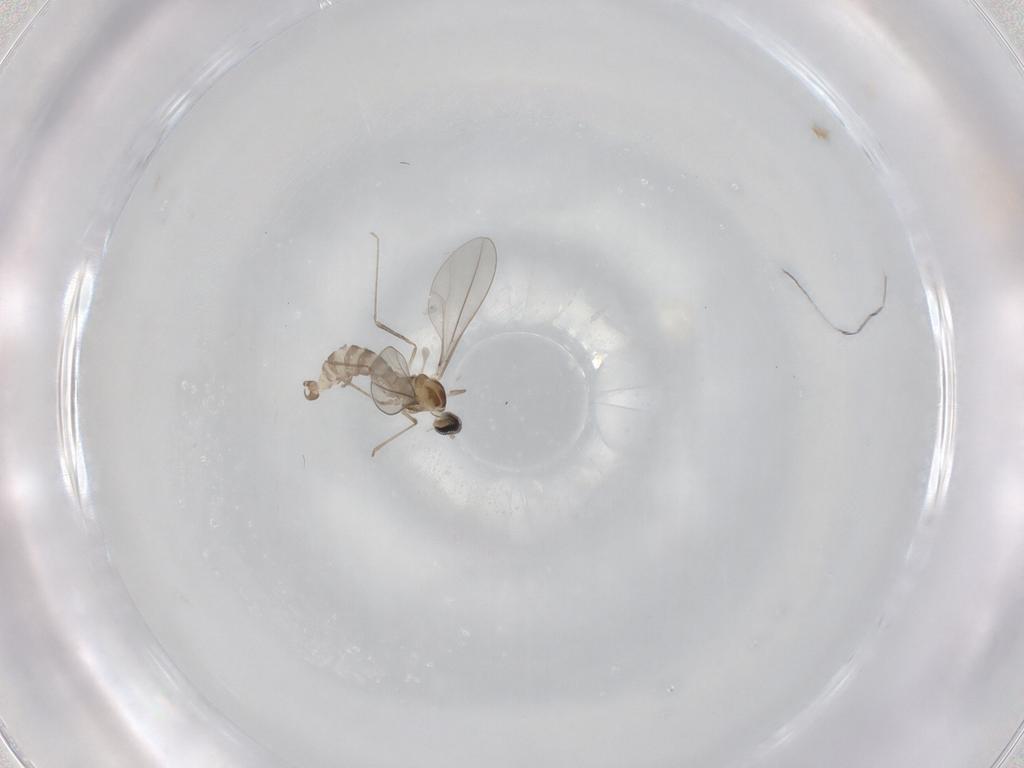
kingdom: Animalia
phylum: Arthropoda
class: Insecta
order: Diptera
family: Cecidomyiidae
